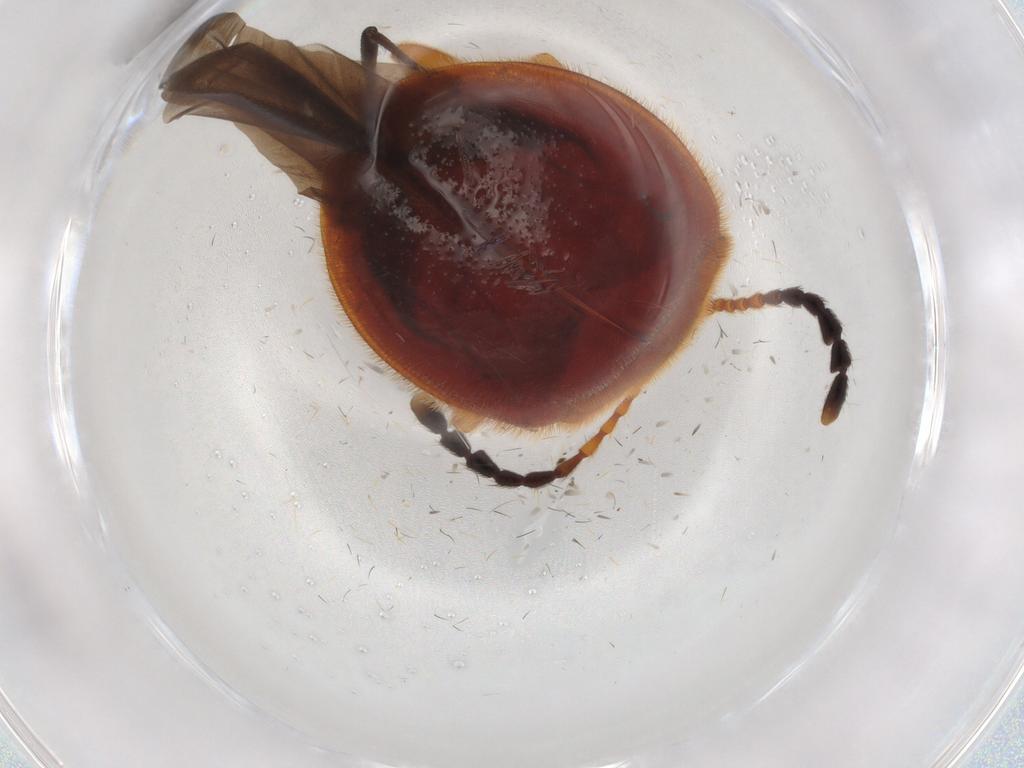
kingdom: Animalia
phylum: Arthropoda
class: Insecta
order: Coleoptera
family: Endomychidae
